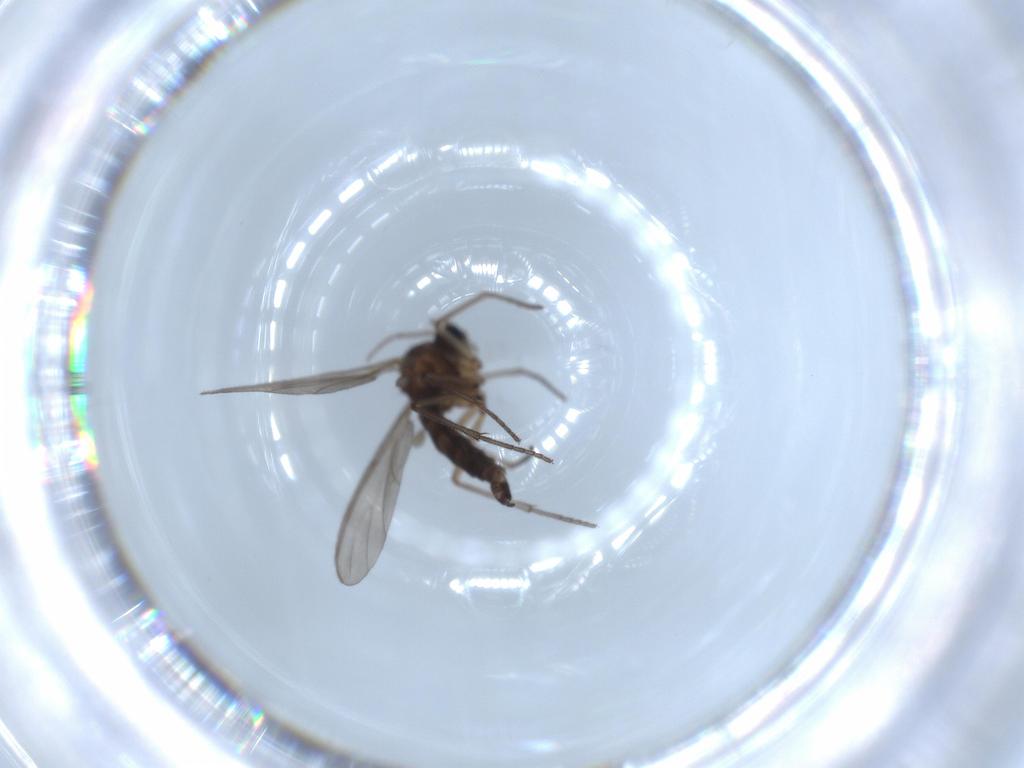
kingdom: Animalia
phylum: Arthropoda
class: Insecta
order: Diptera
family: Sciaridae
